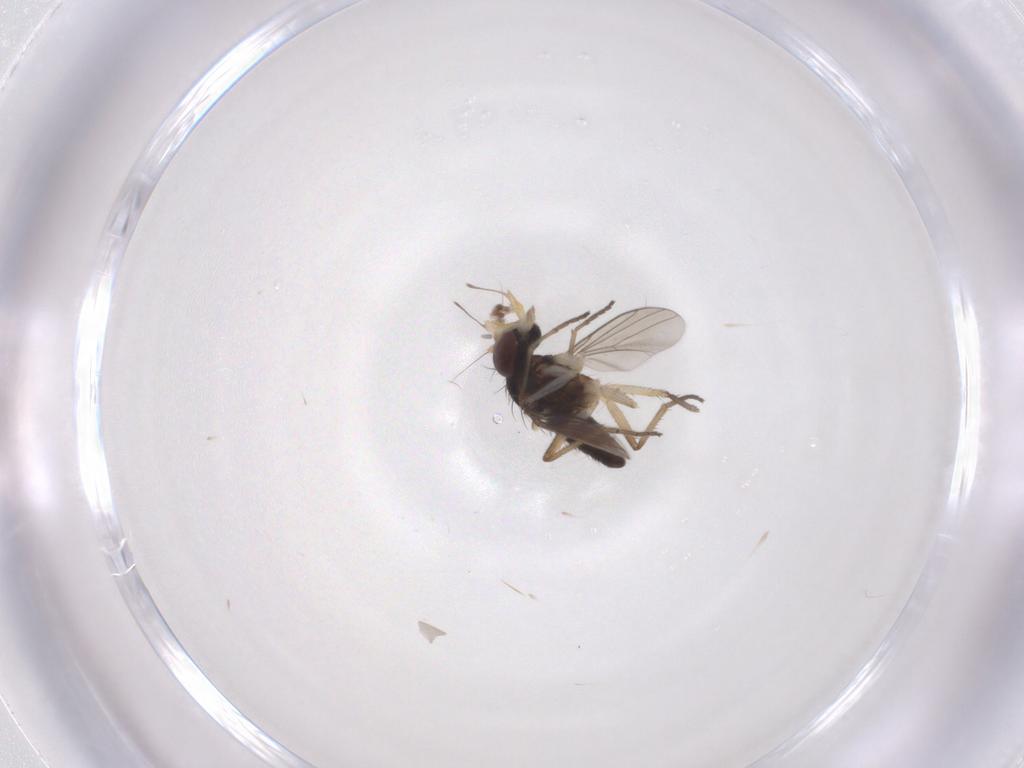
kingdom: Animalia
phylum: Arthropoda
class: Insecta
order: Diptera
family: Dolichopodidae
